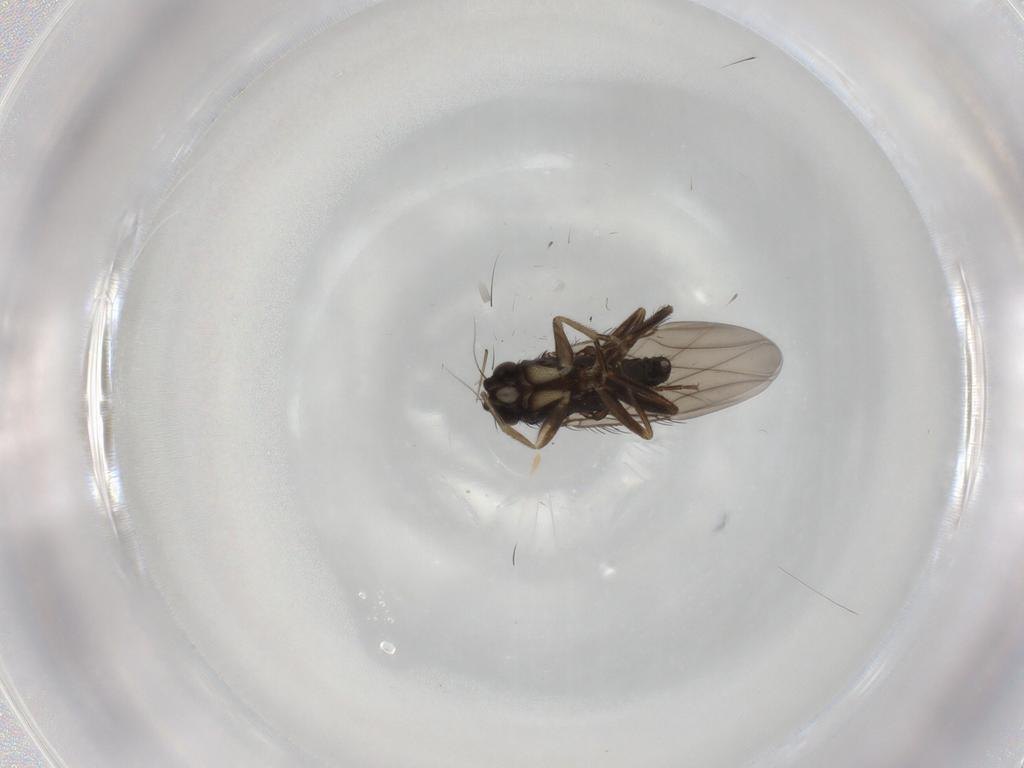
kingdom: Animalia
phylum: Arthropoda
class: Insecta
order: Diptera
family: Phoridae
